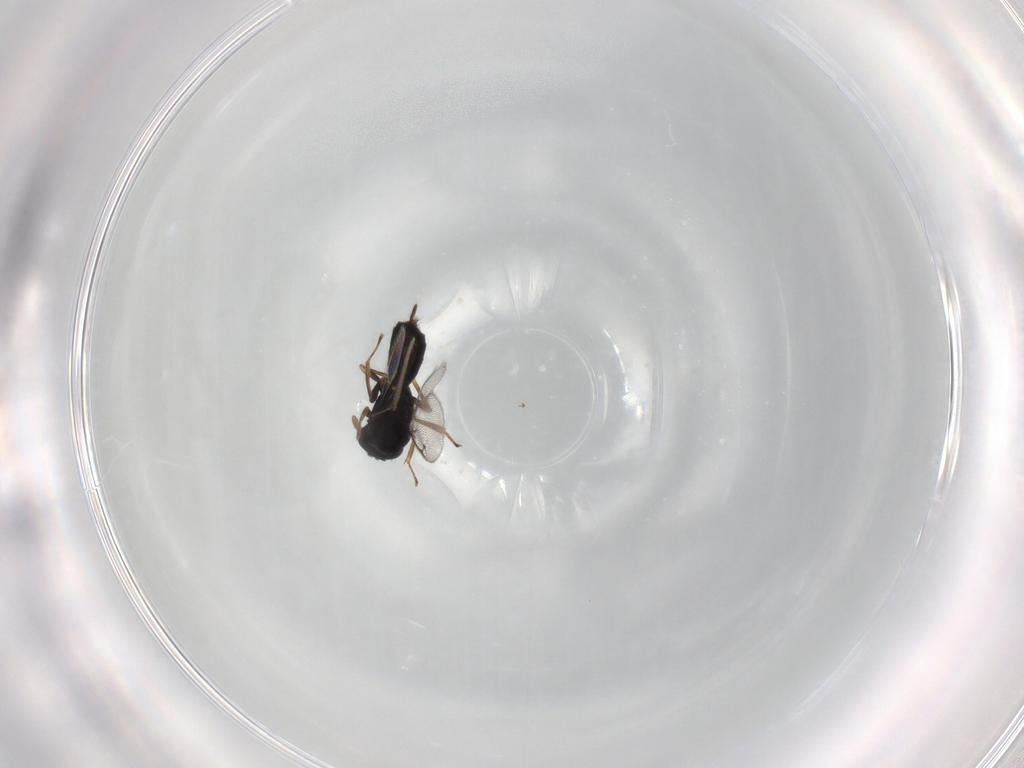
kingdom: Animalia
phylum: Arthropoda
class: Insecta
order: Hymenoptera
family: Pirenidae
